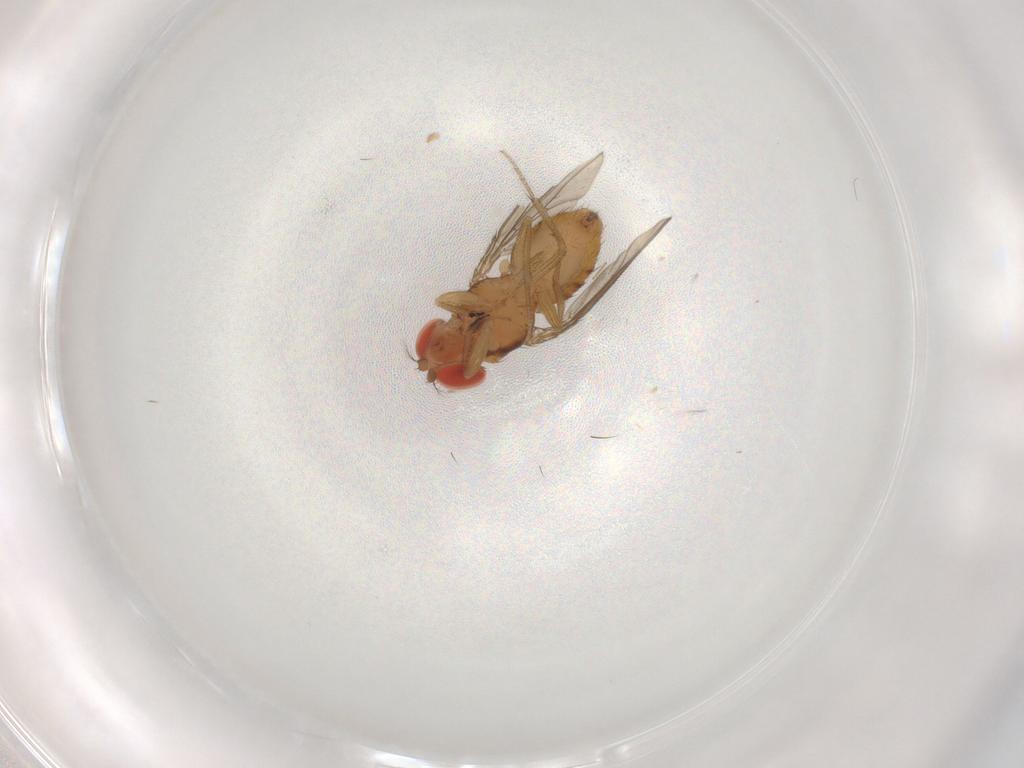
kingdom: Animalia
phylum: Arthropoda
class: Insecta
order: Diptera
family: Drosophilidae
